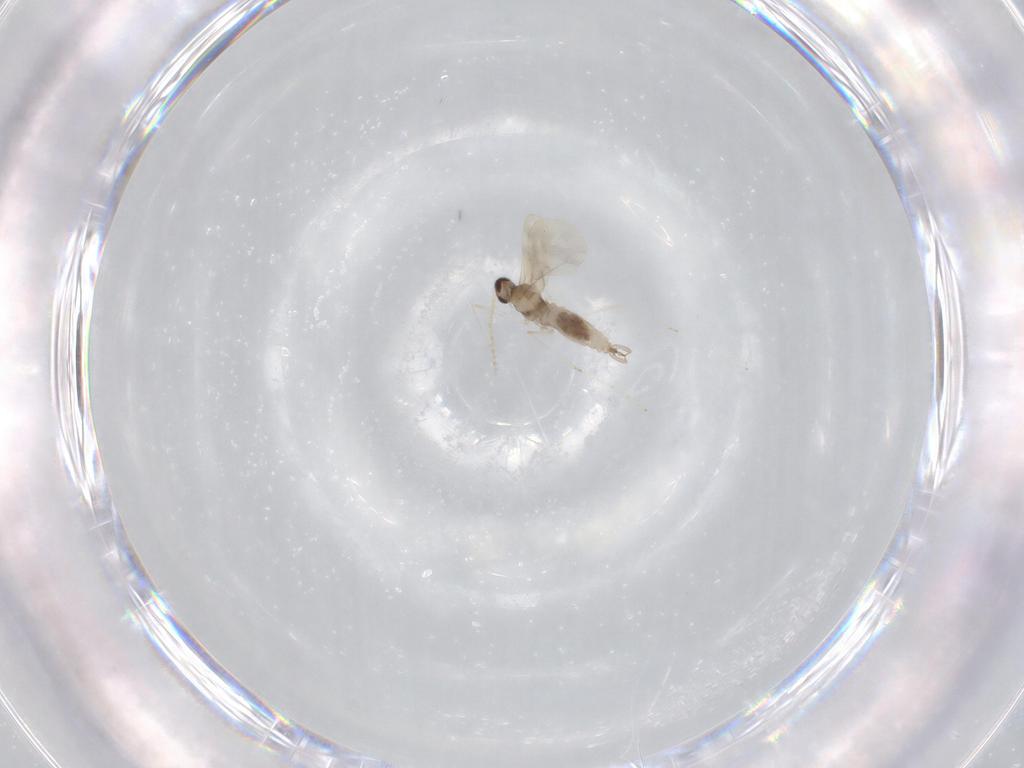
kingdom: Animalia
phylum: Arthropoda
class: Insecta
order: Diptera
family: Cecidomyiidae
